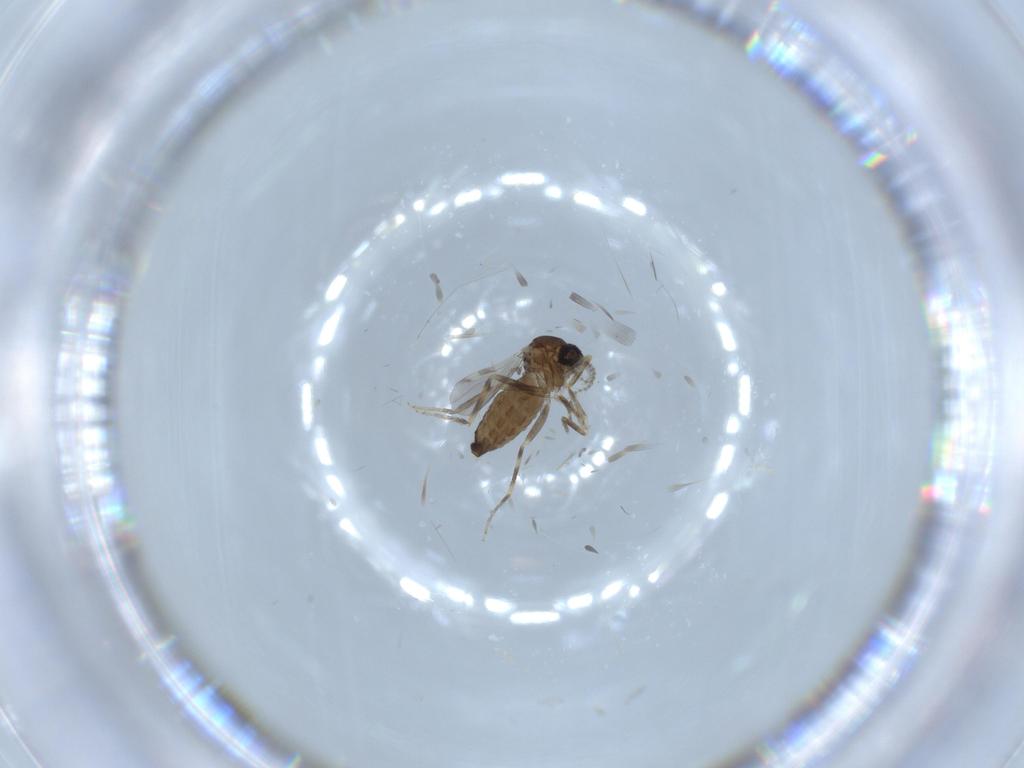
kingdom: Animalia
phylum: Arthropoda
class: Insecta
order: Diptera
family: Ceratopogonidae
